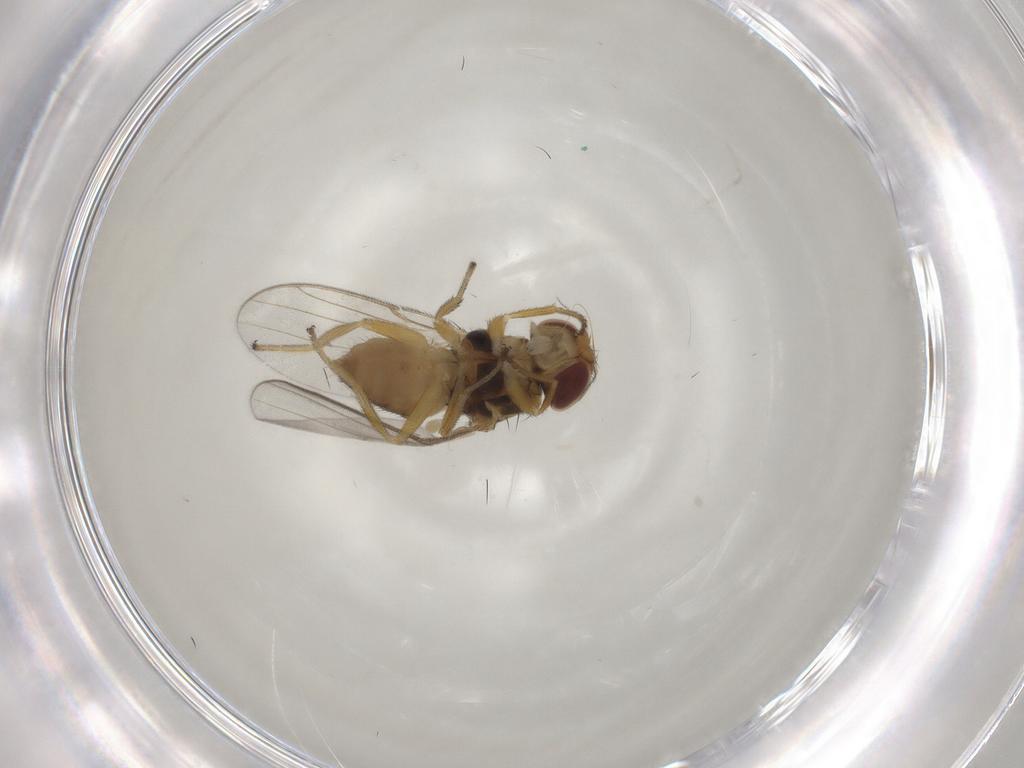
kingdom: Animalia
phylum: Arthropoda
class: Insecta
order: Diptera
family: Chloropidae
